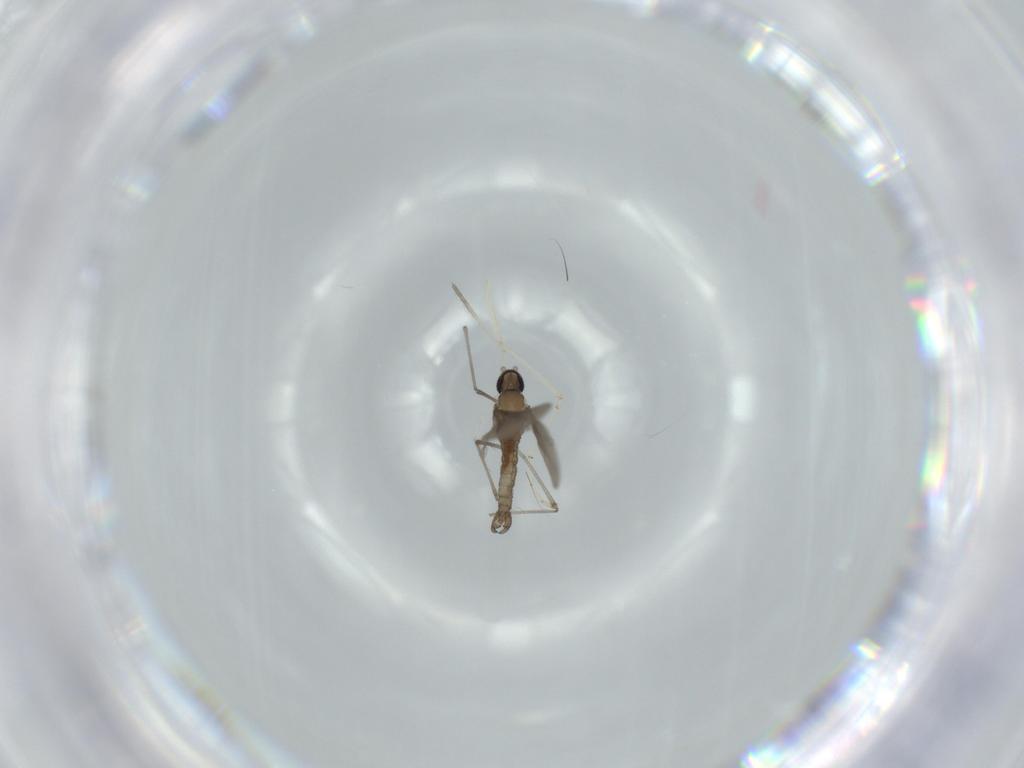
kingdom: Animalia
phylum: Arthropoda
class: Insecta
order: Diptera
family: Cecidomyiidae
